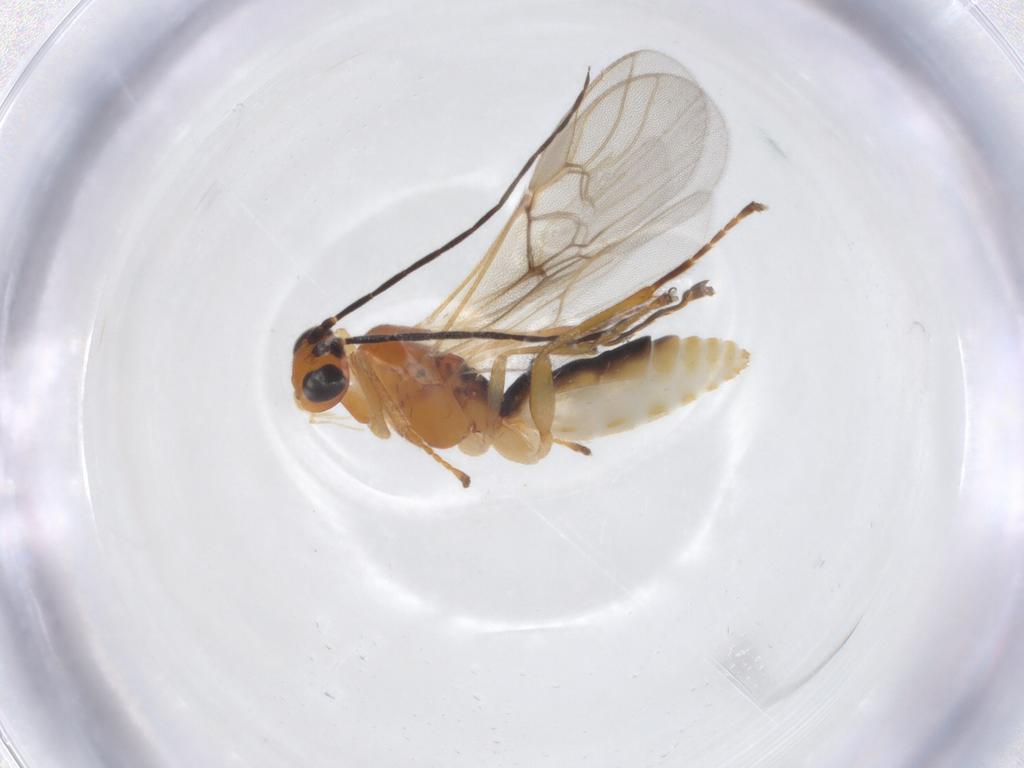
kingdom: Animalia
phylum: Arthropoda
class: Insecta
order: Hymenoptera
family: Braconidae
